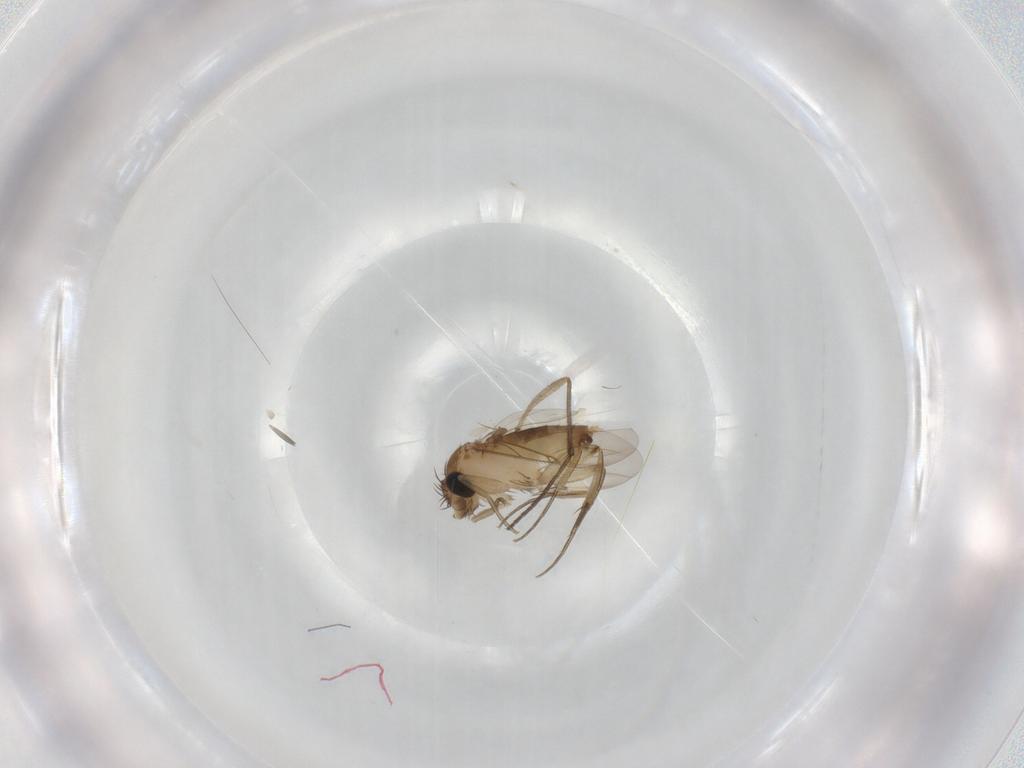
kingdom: Animalia
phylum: Arthropoda
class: Insecta
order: Diptera
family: Sciaridae
